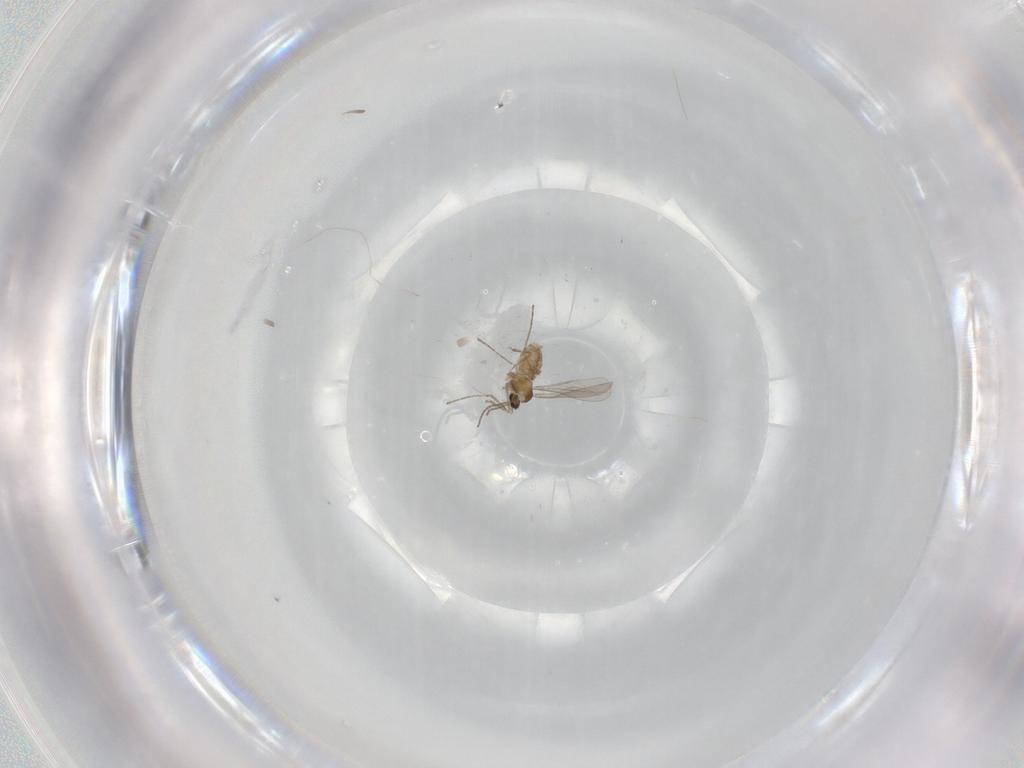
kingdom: Animalia
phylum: Arthropoda
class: Insecta
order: Diptera
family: Cecidomyiidae
